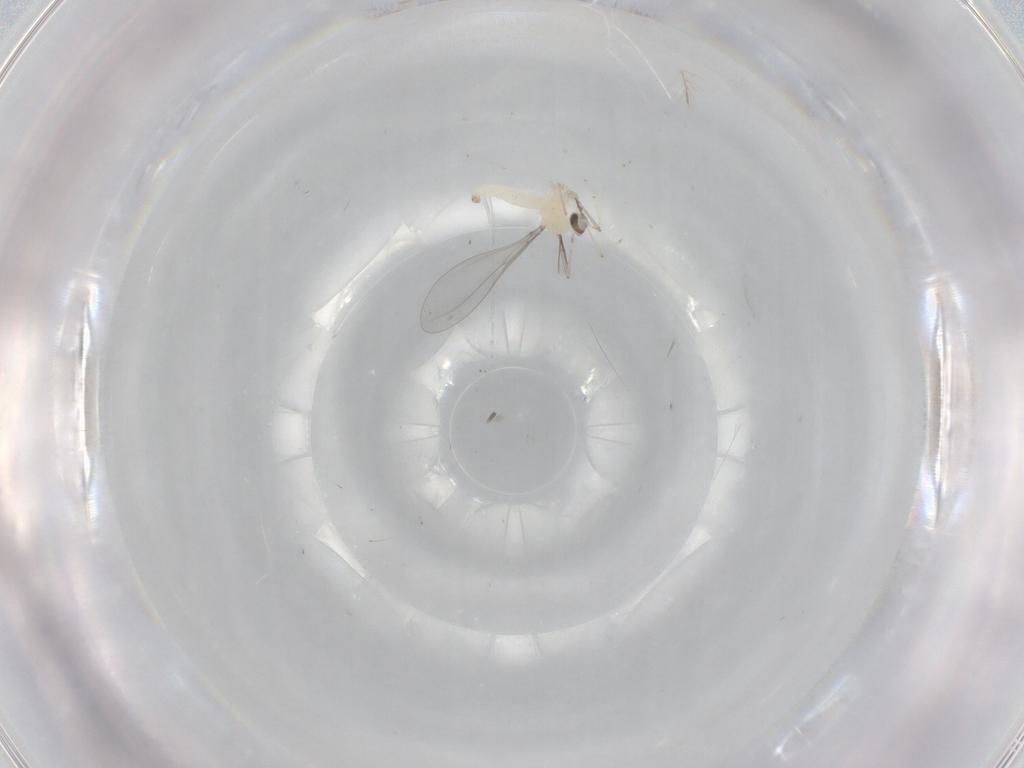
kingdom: Animalia
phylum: Arthropoda
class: Insecta
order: Diptera
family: Cecidomyiidae
